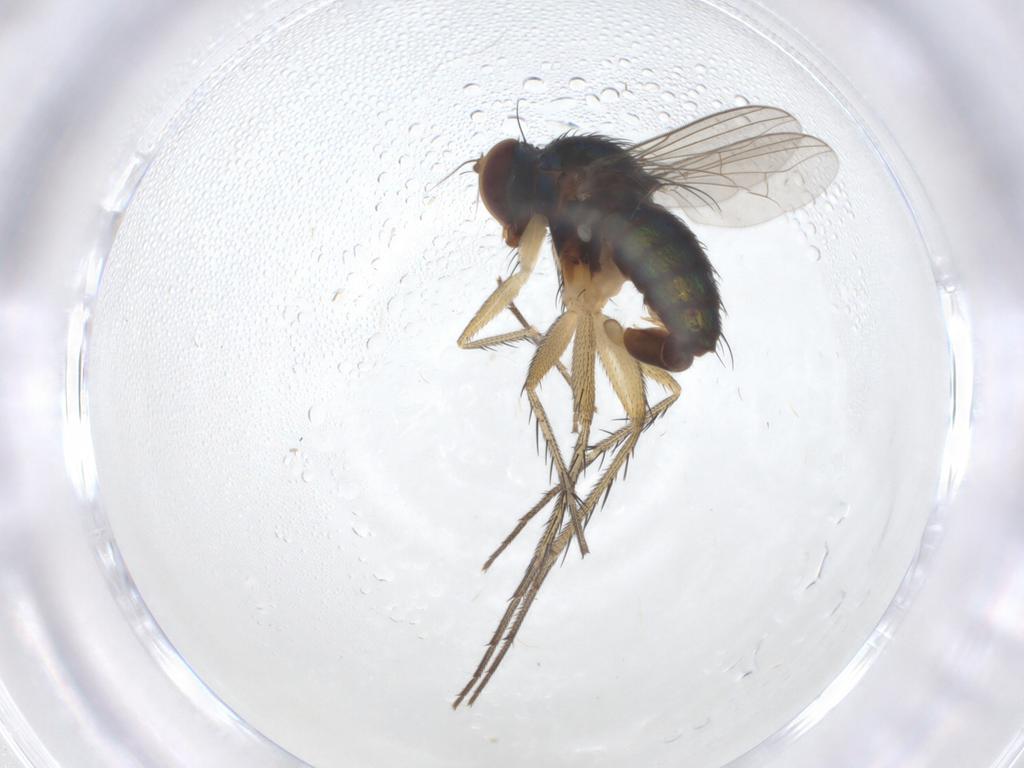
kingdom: Animalia
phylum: Arthropoda
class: Insecta
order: Diptera
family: Dolichopodidae
